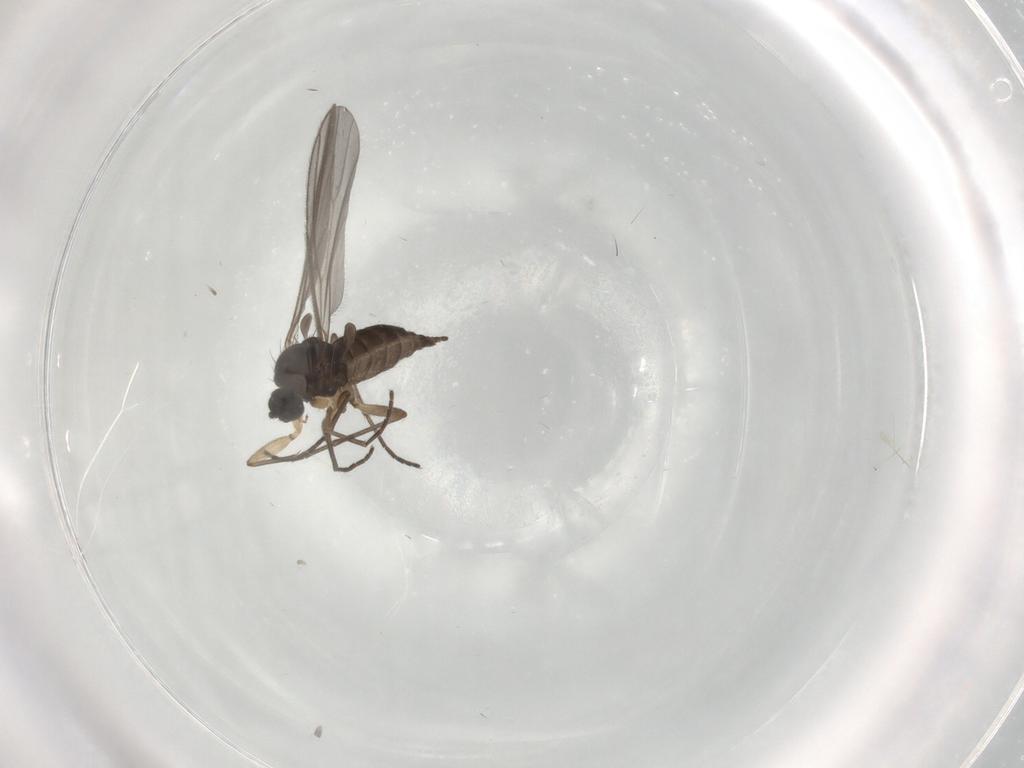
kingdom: Animalia
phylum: Arthropoda
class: Insecta
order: Diptera
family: Sciaridae
